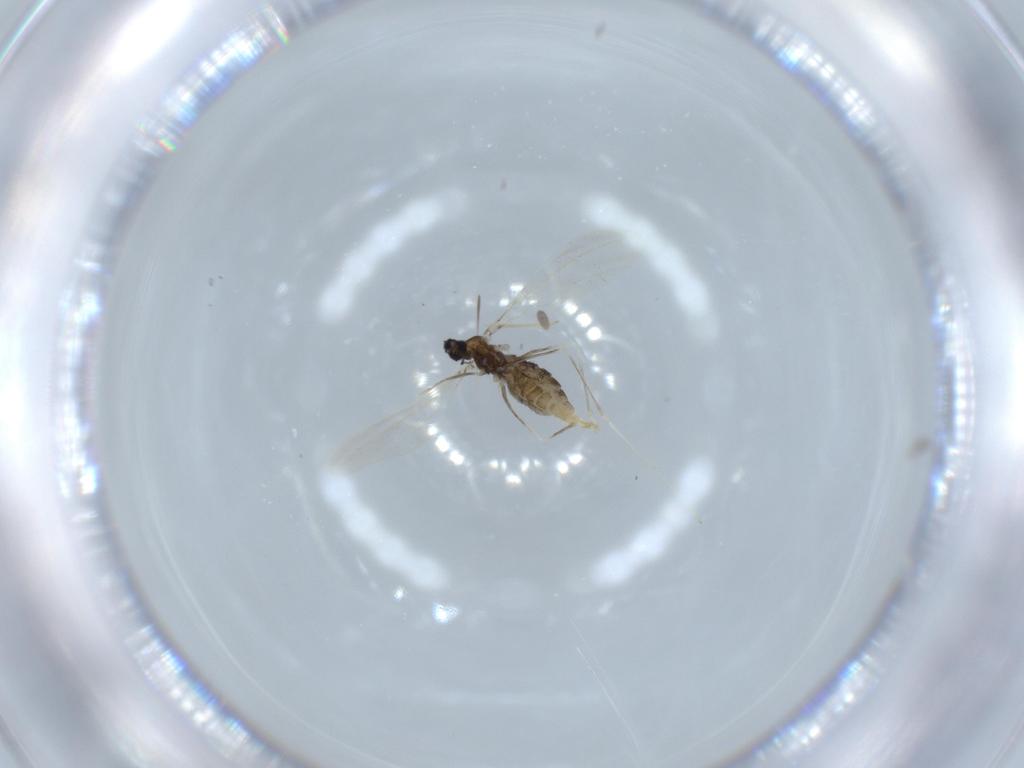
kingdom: Animalia
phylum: Arthropoda
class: Insecta
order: Diptera
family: Cecidomyiidae
